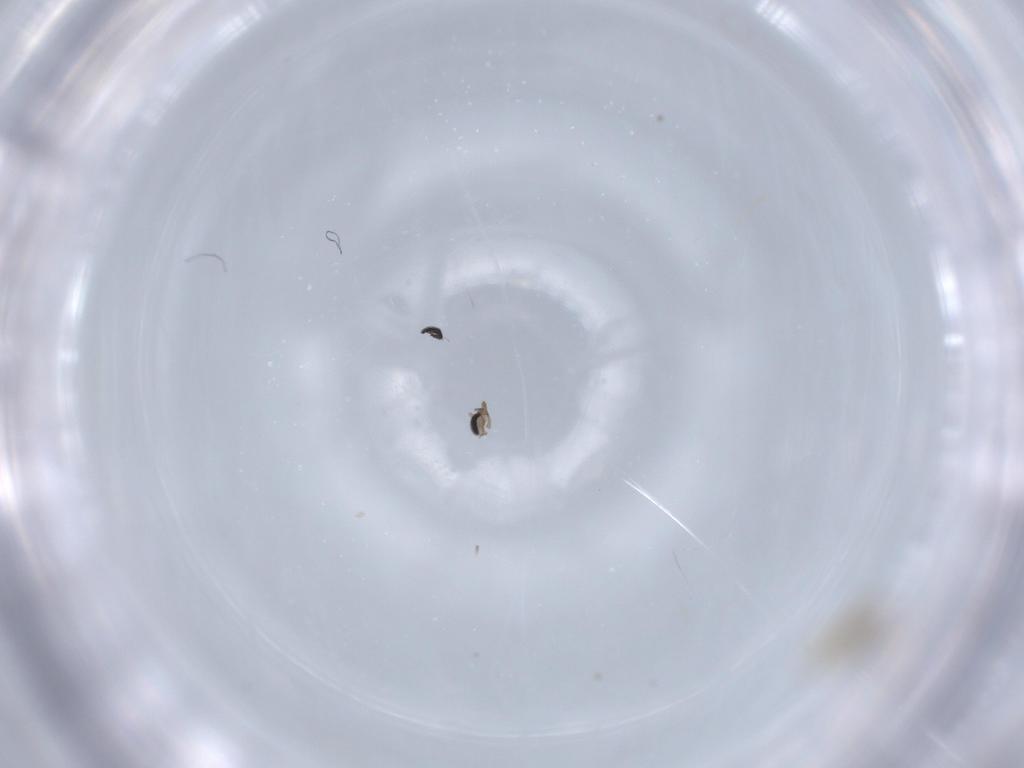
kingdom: Animalia
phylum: Arthropoda
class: Insecta
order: Diptera
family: Cecidomyiidae
